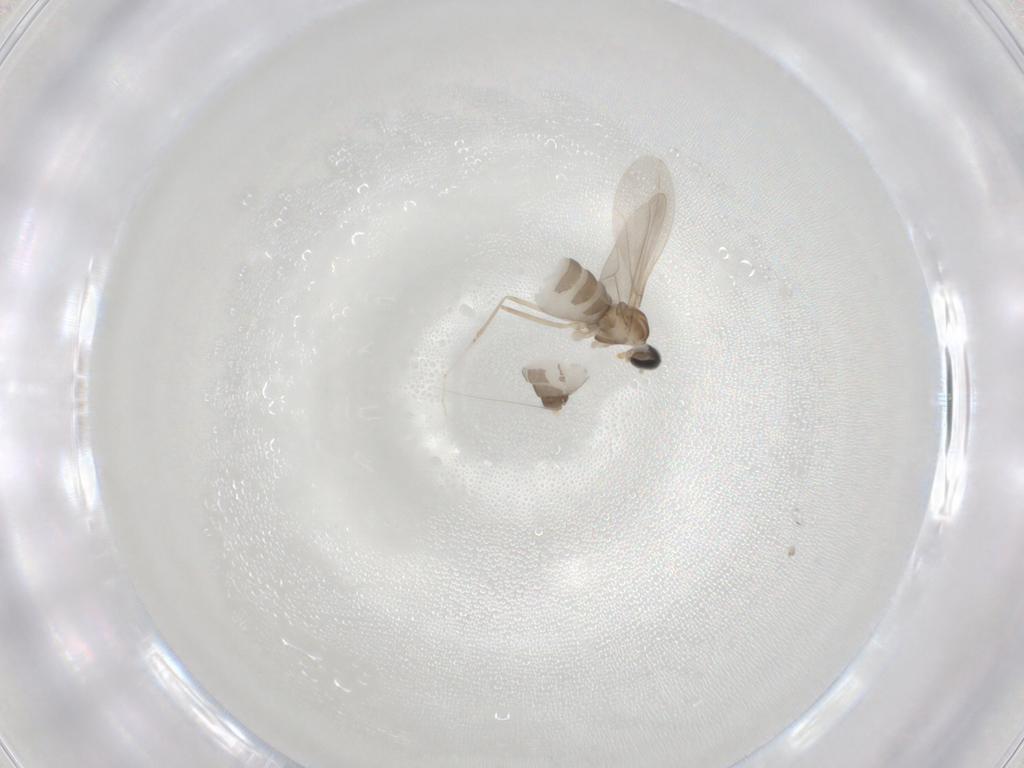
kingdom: Animalia
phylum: Arthropoda
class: Insecta
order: Diptera
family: Cecidomyiidae
